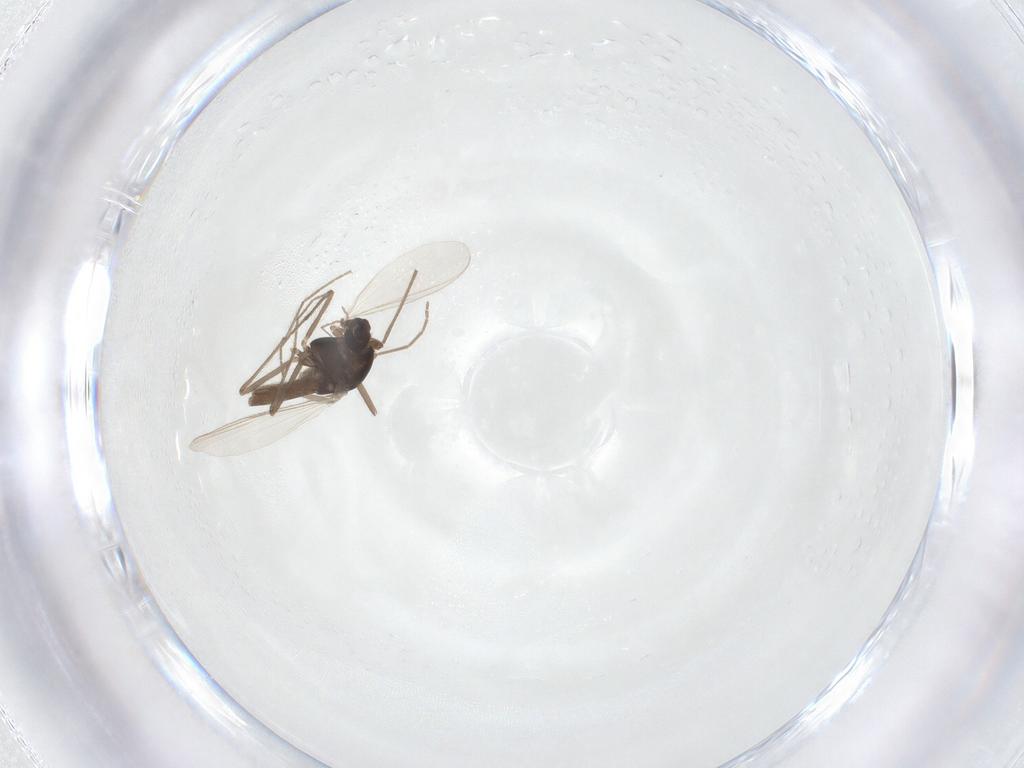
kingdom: Animalia
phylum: Arthropoda
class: Insecta
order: Diptera
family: Chironomidae
